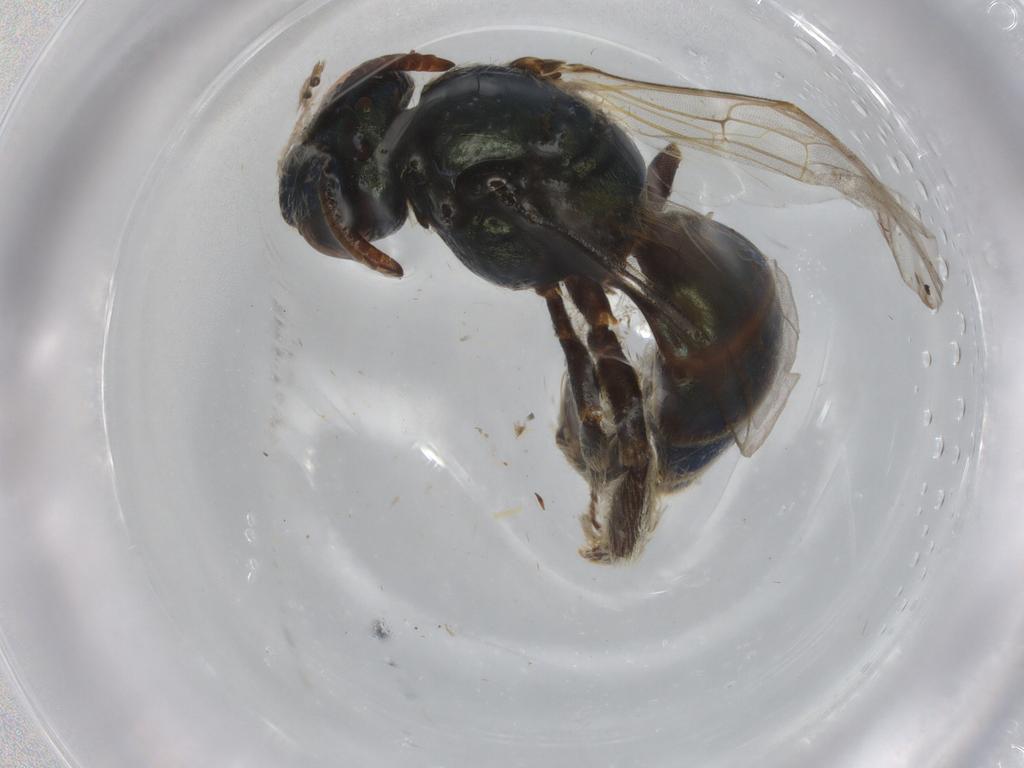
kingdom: Animalia
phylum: Arthropoda
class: Insecta
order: Hymenoptera
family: Halictidae
